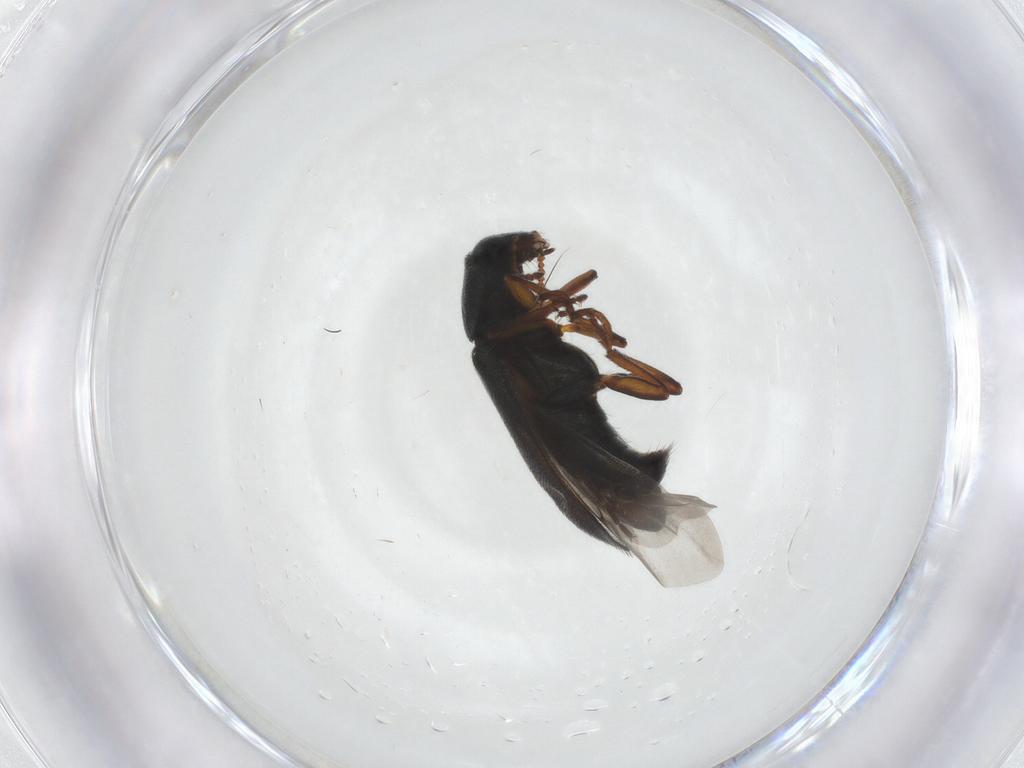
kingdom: Animalia
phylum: Arthropoda
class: Insecta
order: Coleoptera
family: Melyridae
